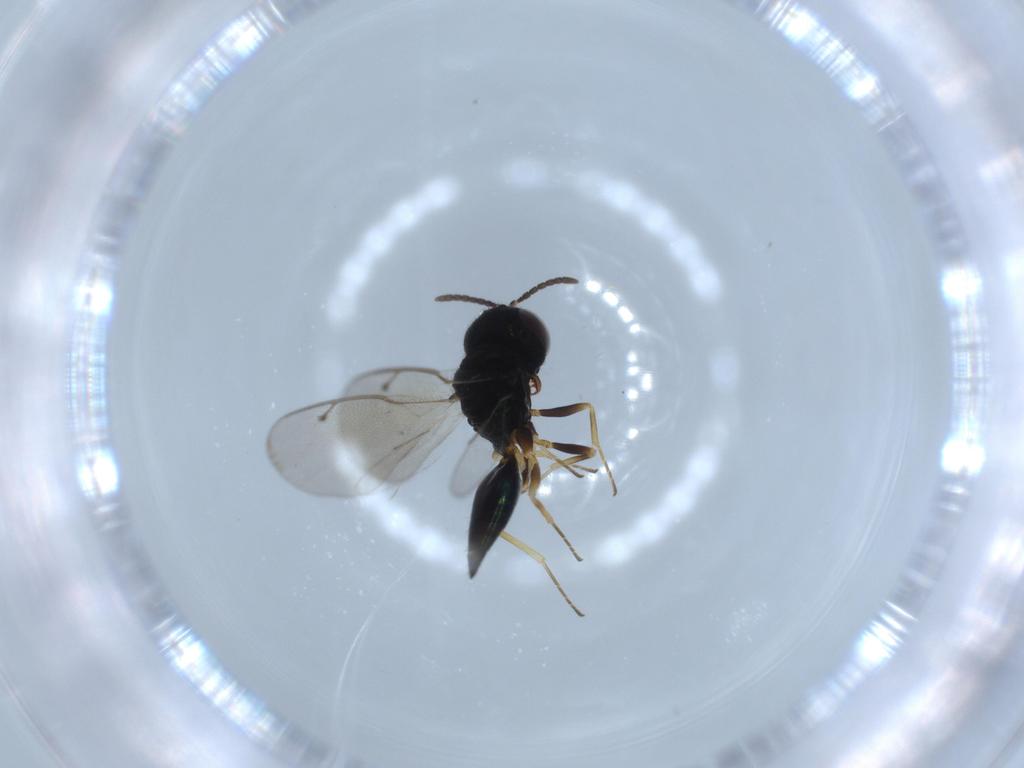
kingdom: Animalia
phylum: Arthropoda
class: Insecta
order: Hymenoptera
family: Pteromalidae
